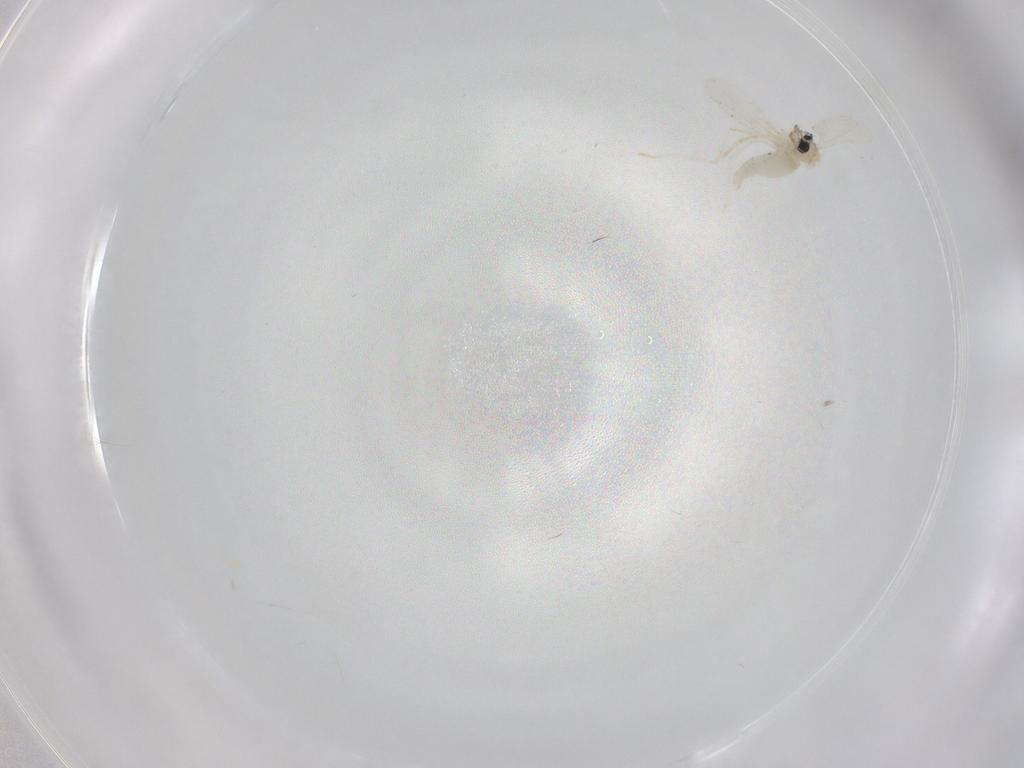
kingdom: Animalia
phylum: Arthropoda
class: Insecta
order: Diptera
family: Cecidomyiidae
